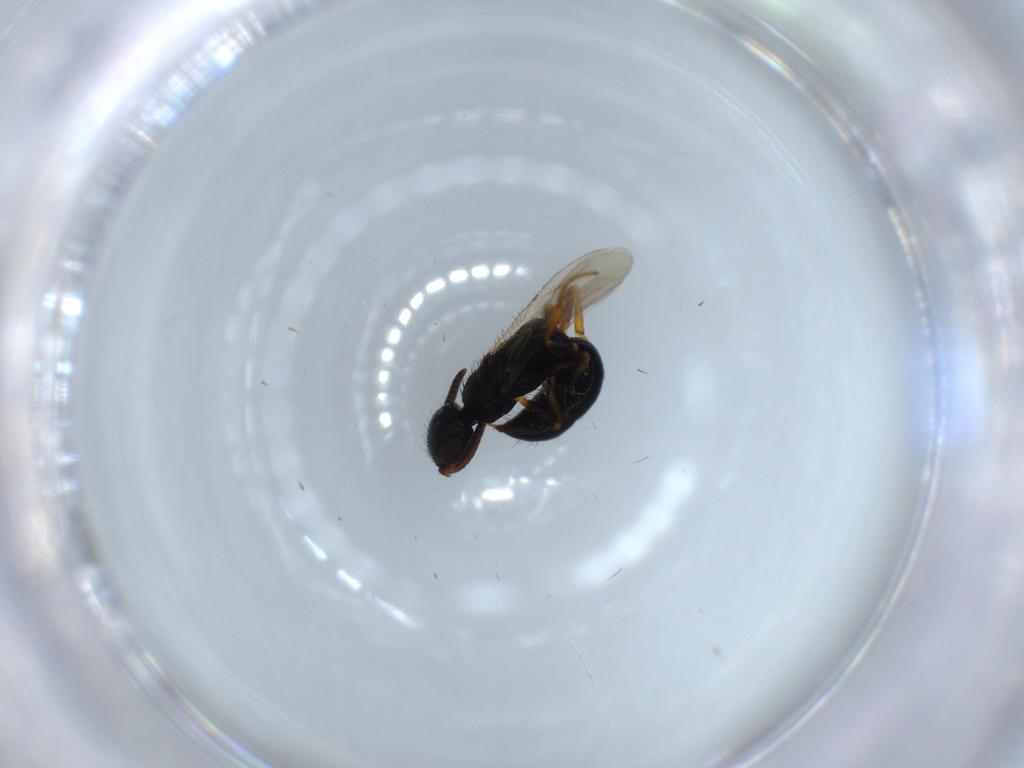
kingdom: Animalia
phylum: Arthropoda
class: Insecta
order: Hymenoptera
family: Bethylidae
